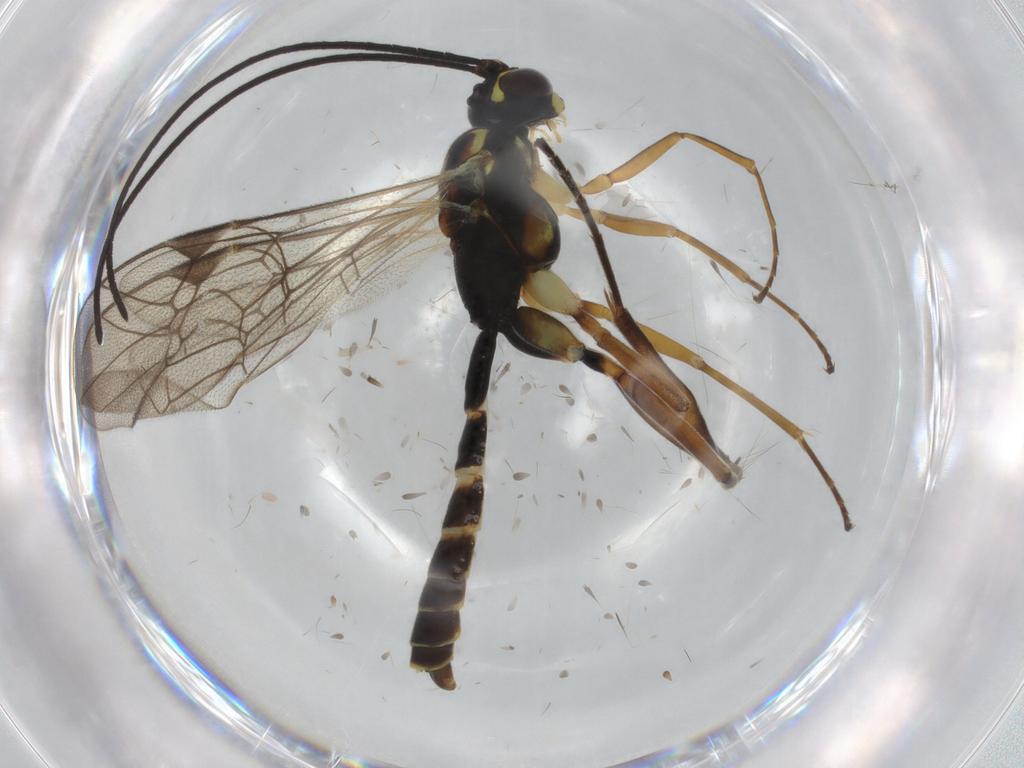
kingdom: Animalia
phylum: Arthropoda
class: Insecta
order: Hymenoptera
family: Ichneumonidae
